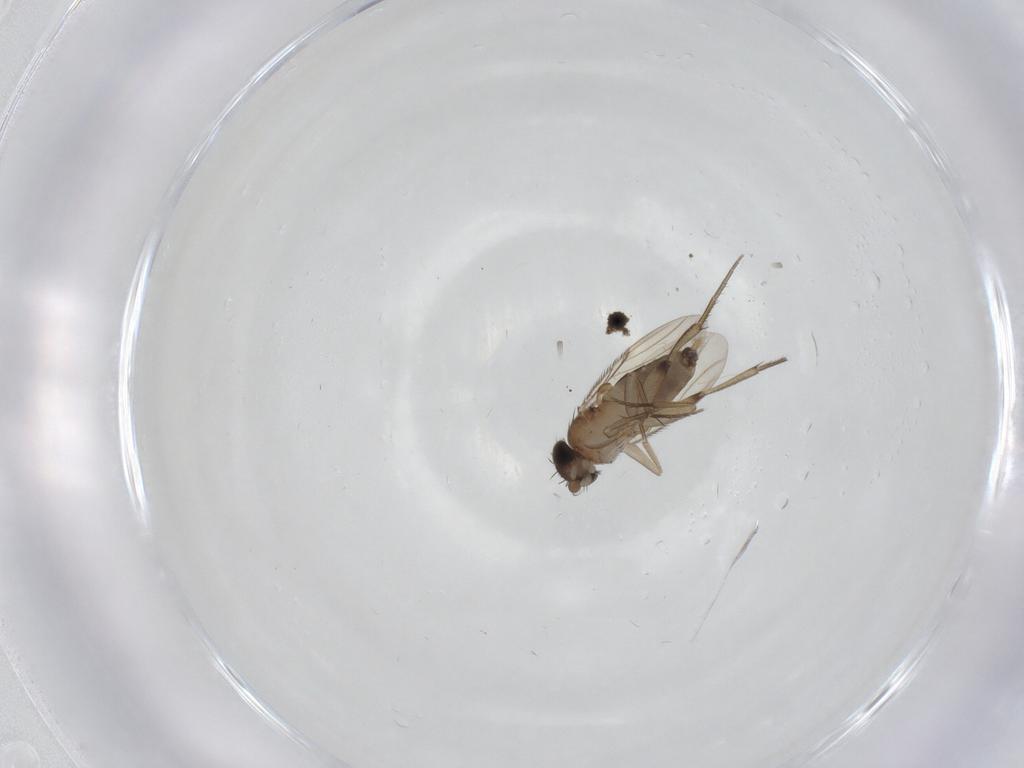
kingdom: Animalia
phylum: Arthropoda
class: Insecta
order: Diptera
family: Phoridae
